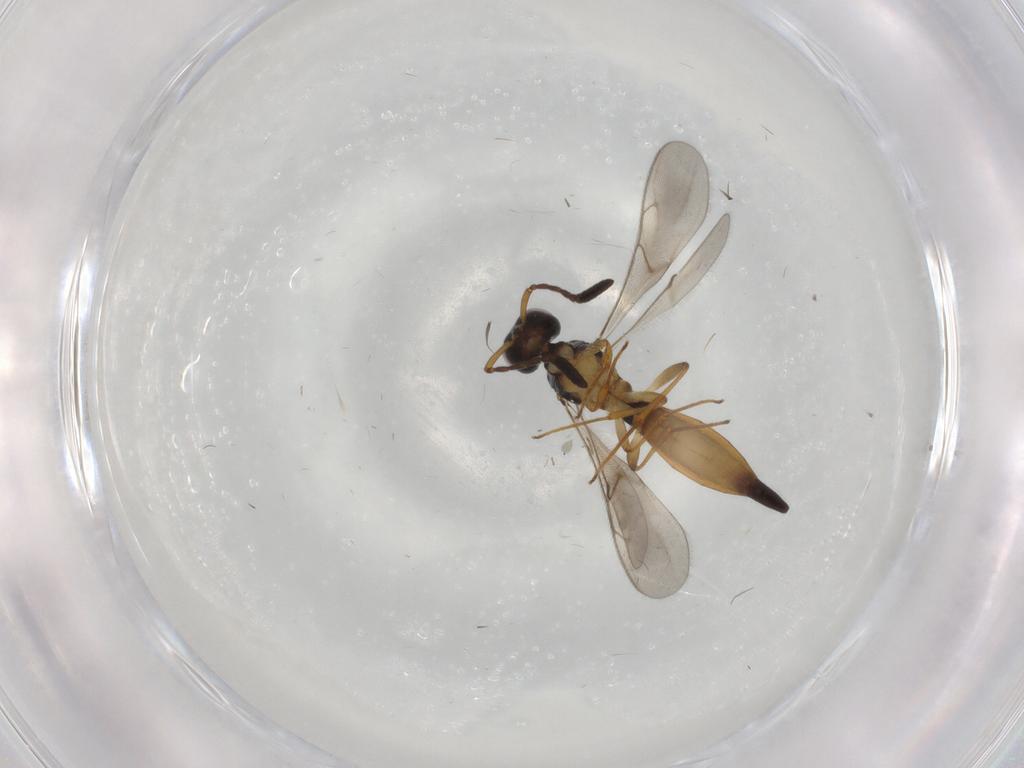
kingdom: Animalia
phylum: Arthropoda
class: Insecta
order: Hymenoptera
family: Scelionidae
